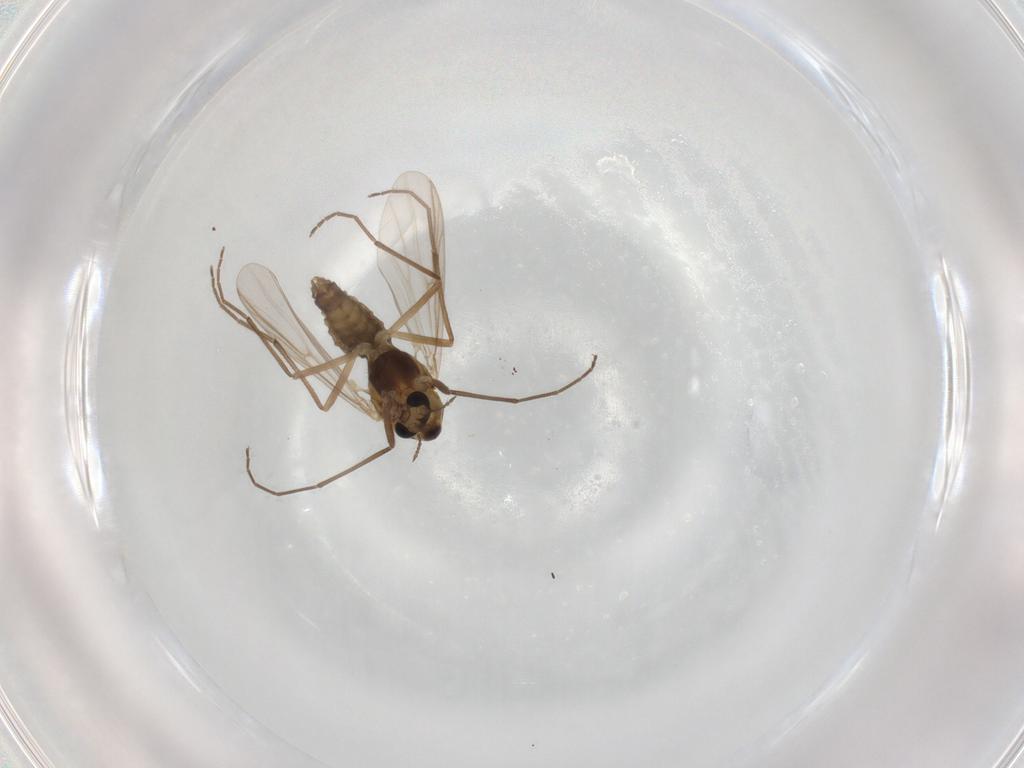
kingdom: Animalia
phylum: Arthropoda
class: Insecta
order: Diptera
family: Chironomidae
